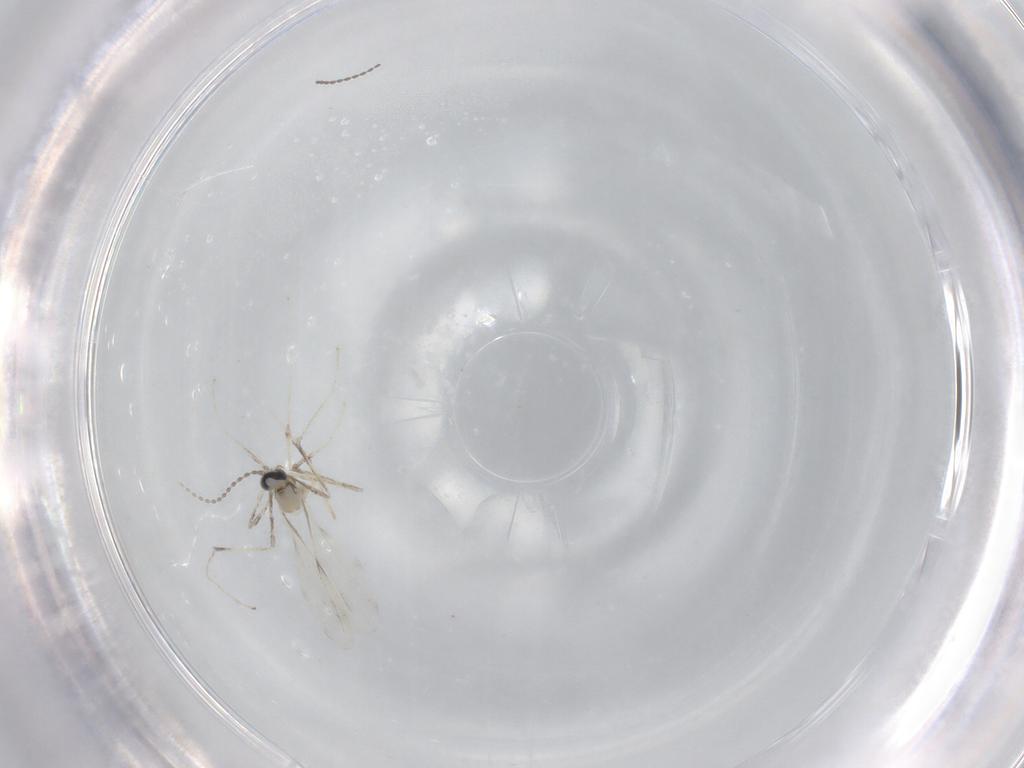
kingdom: Animalia
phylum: Arthropoda
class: Insecta
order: Diptera
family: Cecidomyiidae
